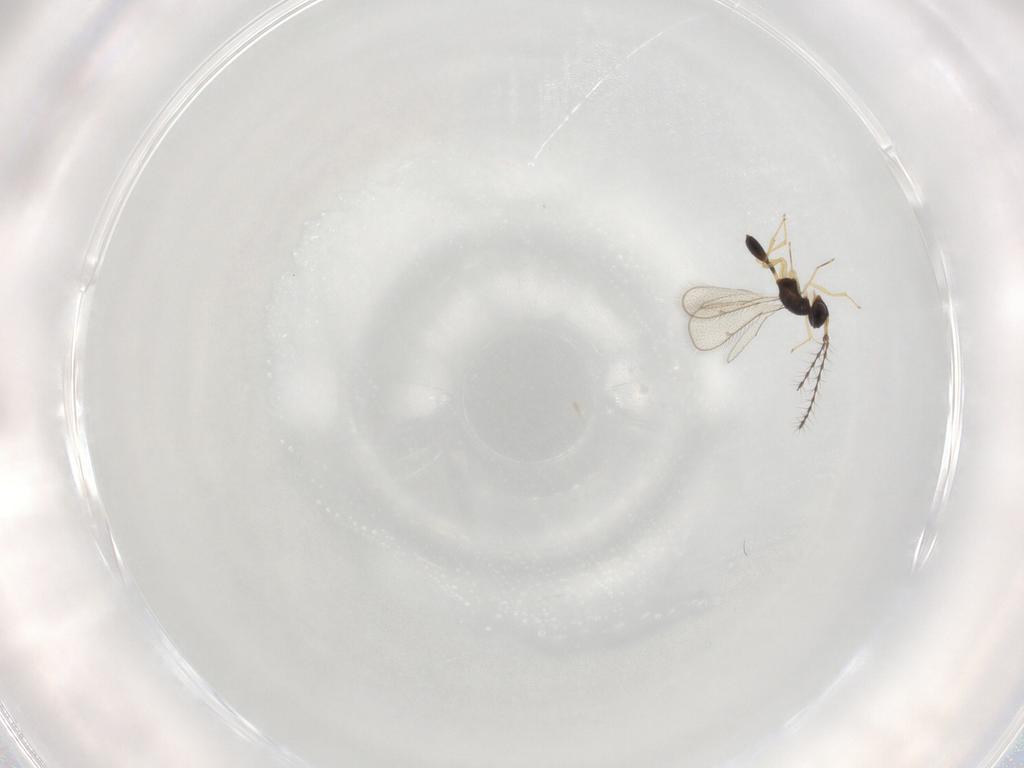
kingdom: Animalia
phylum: Arthropoda
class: Insecta
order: Hymenoptera
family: Diparidae
